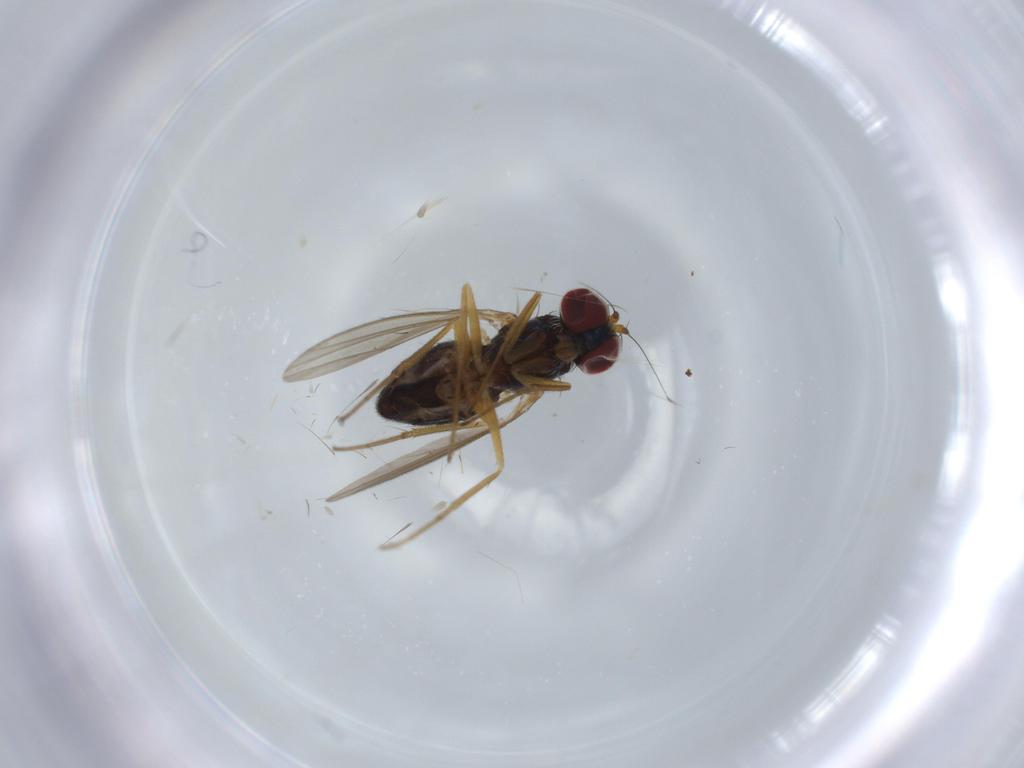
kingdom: Animalia
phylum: Arthropoda
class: Insecta
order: Diptera
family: Dolichopodidae
